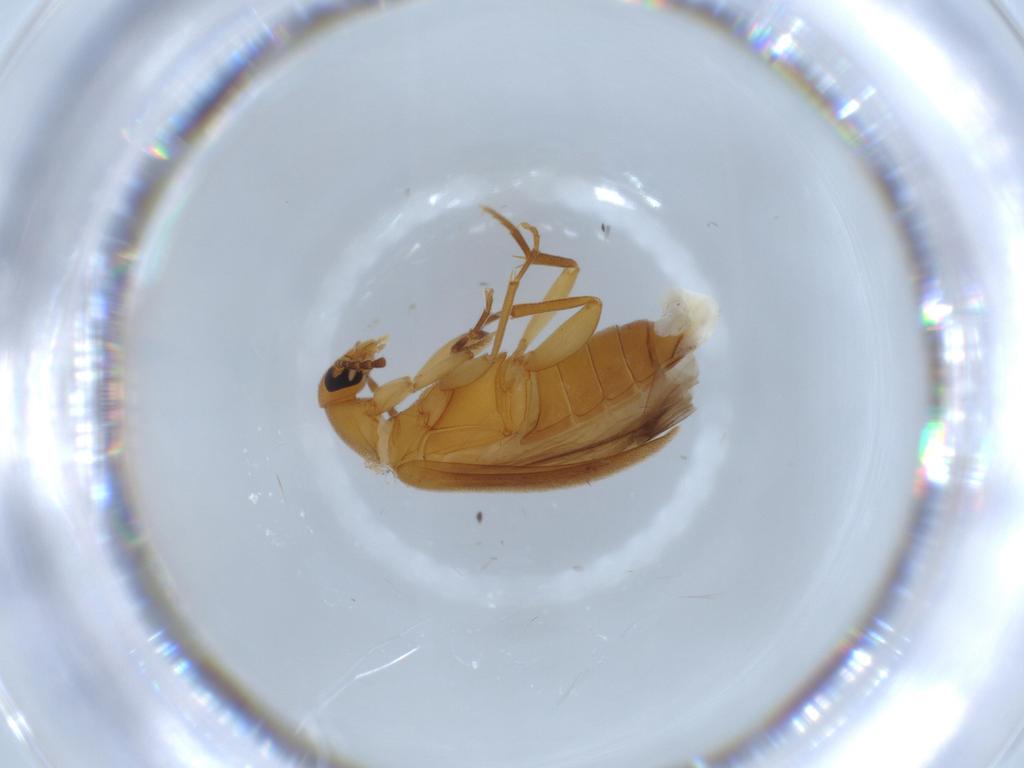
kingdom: Animalia
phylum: Arthropoda
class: Insecta
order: Coleoptera
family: Scraptiidae
